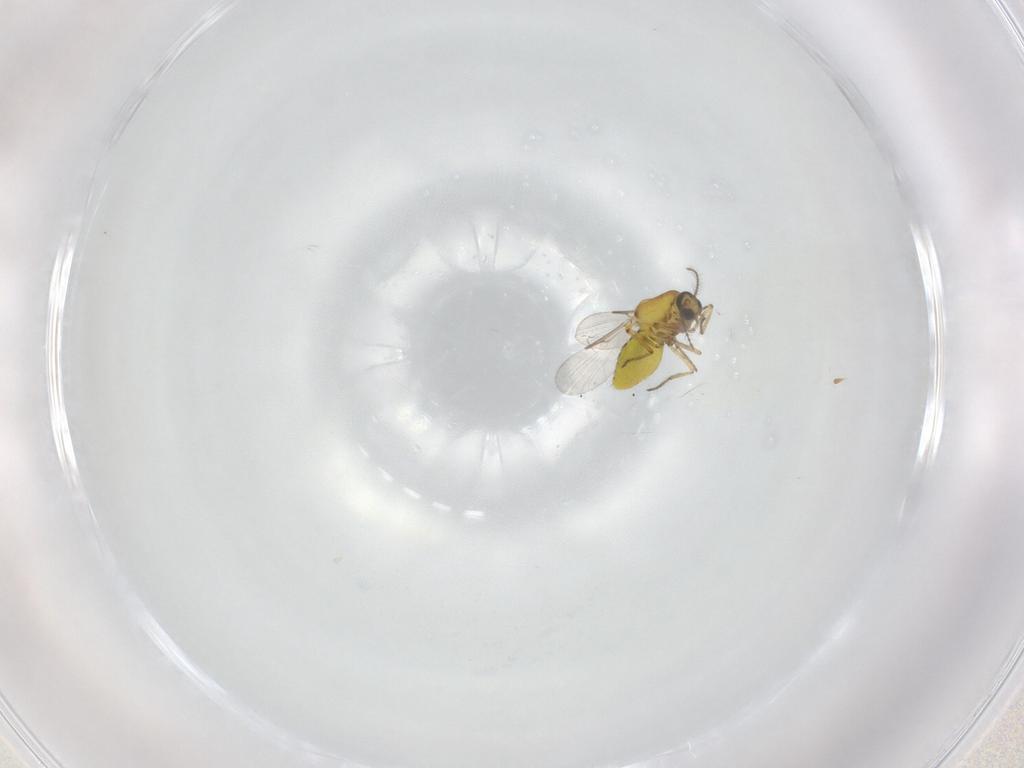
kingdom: Animalia
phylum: Arthropoda
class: Insecta
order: Diptera
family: Ceratopogonidae
